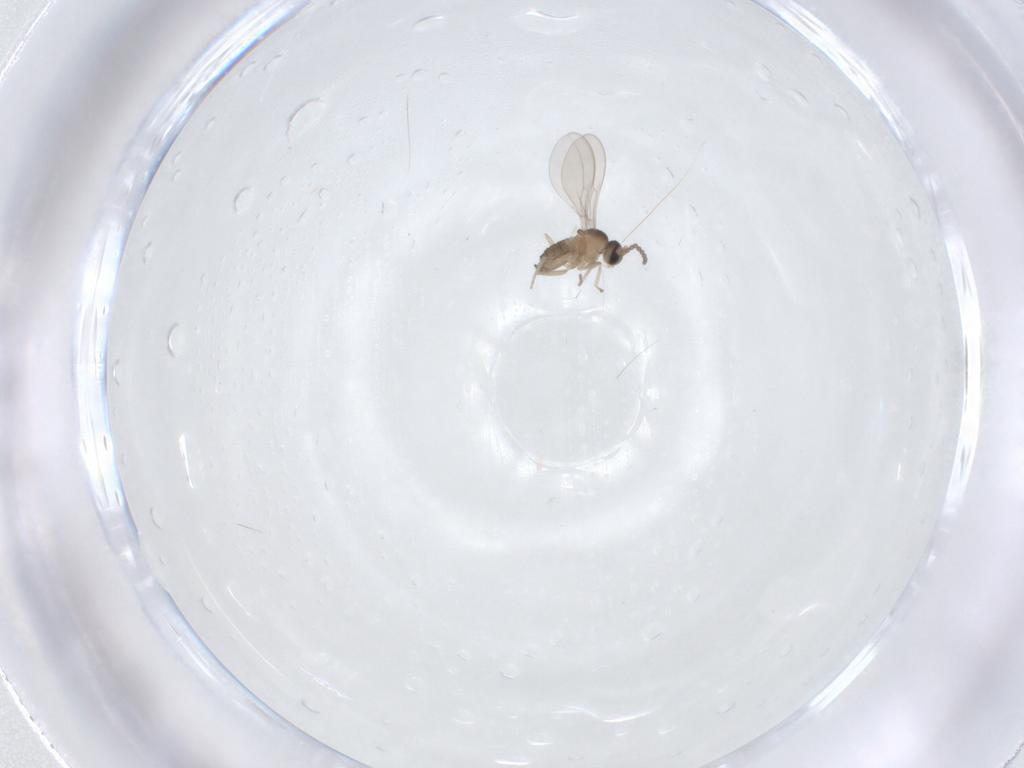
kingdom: Animalia
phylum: Arthropoda
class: Insecta
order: Diptera
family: Cecidomyiidae
